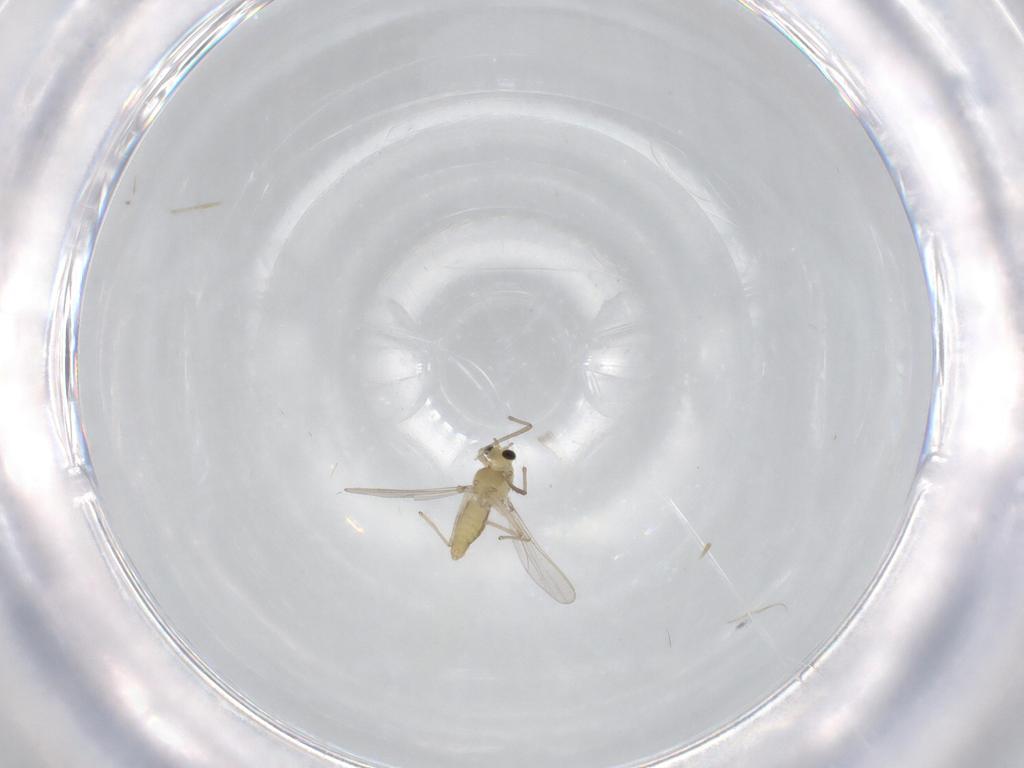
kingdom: Animalia
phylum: Arthropoda
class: Insecta
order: Diptera
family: Chironomidae
